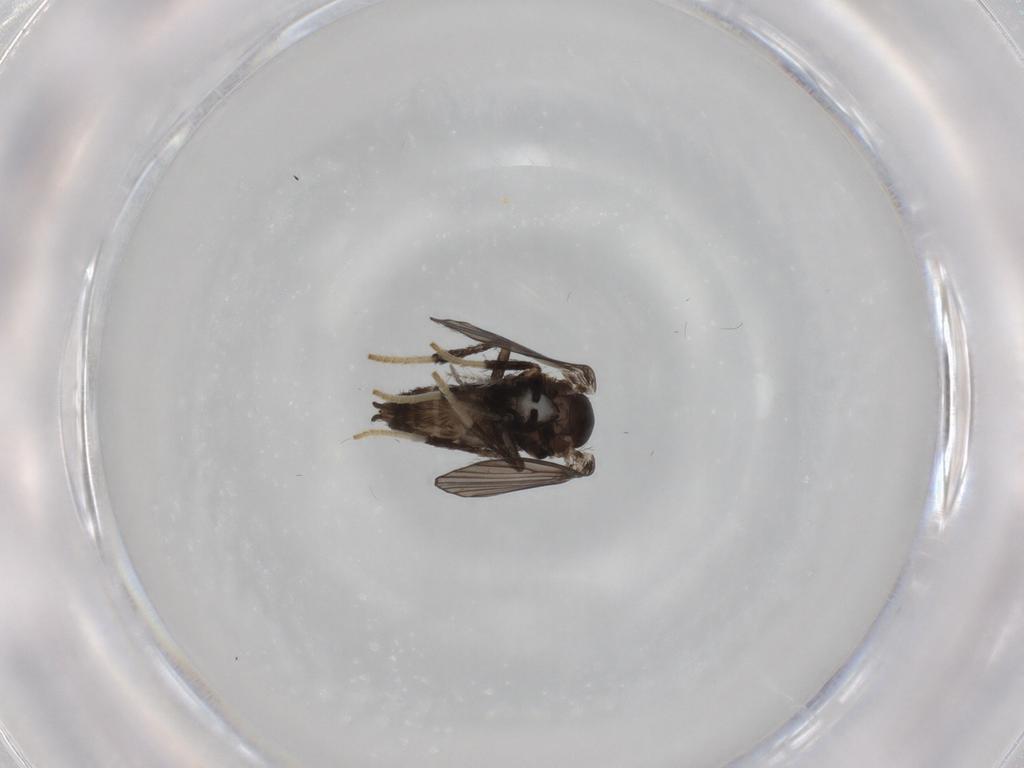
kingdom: Animalia
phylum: Arthropoda
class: Insecta
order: Diptera
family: Psychodidae
